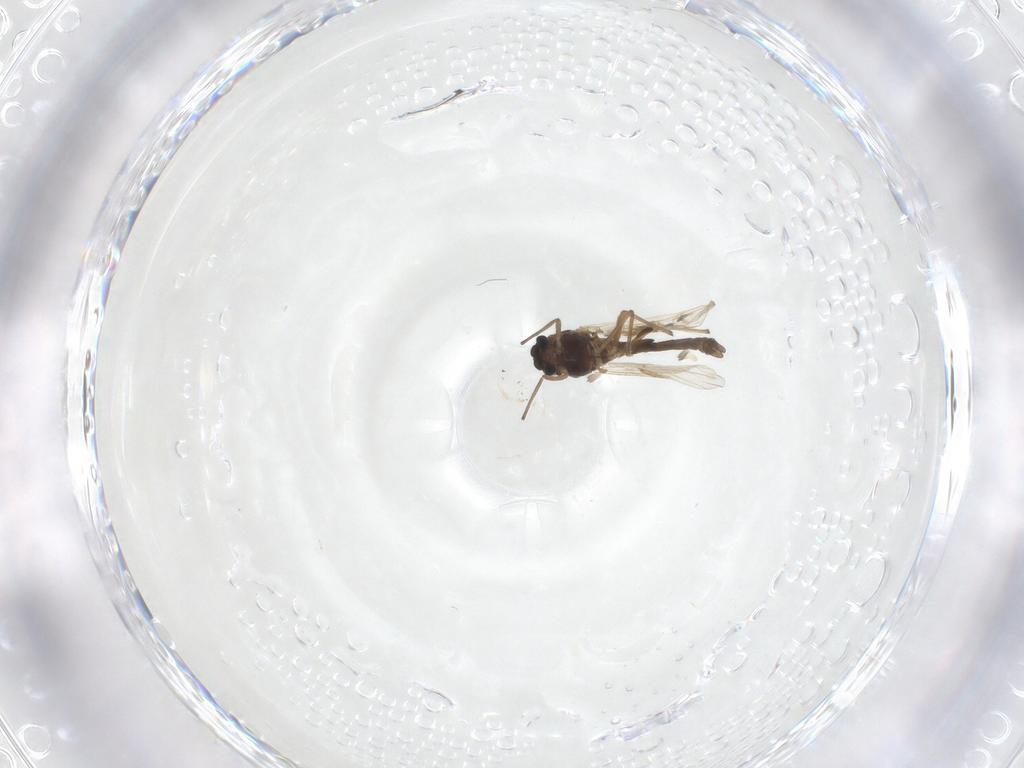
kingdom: Animalia
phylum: Arthropoda
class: Insecta
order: Diptera
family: Chironomidae
